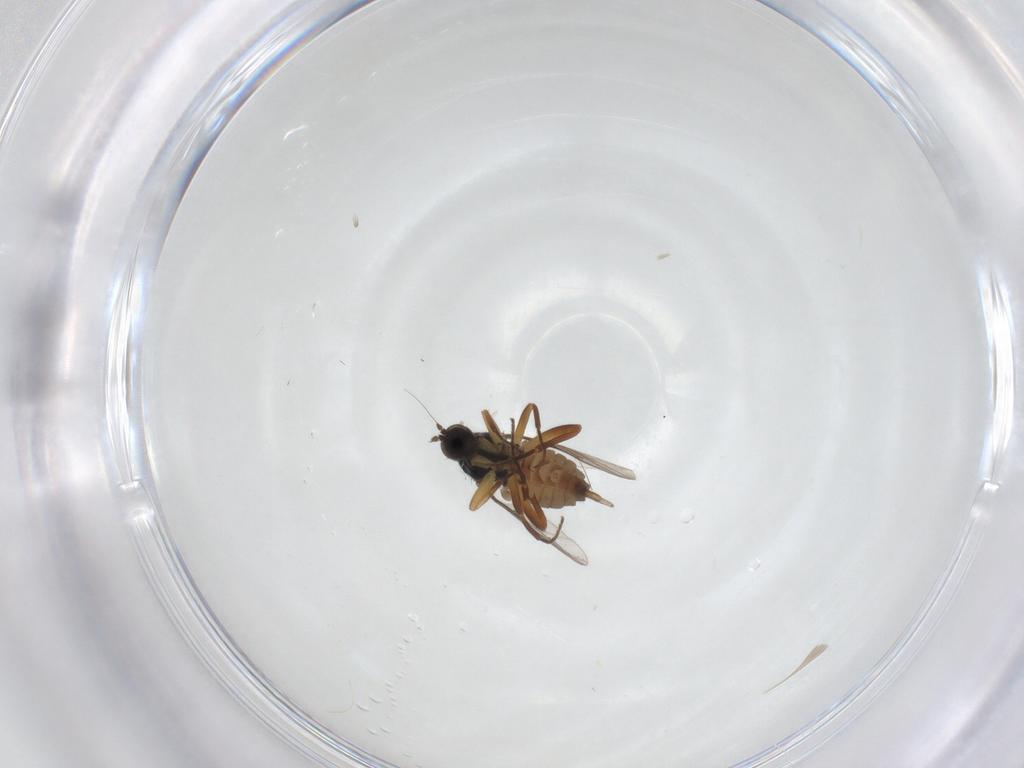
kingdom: Animalia
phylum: Arthropoda
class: Insecta
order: Diptera
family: Hybotidae
